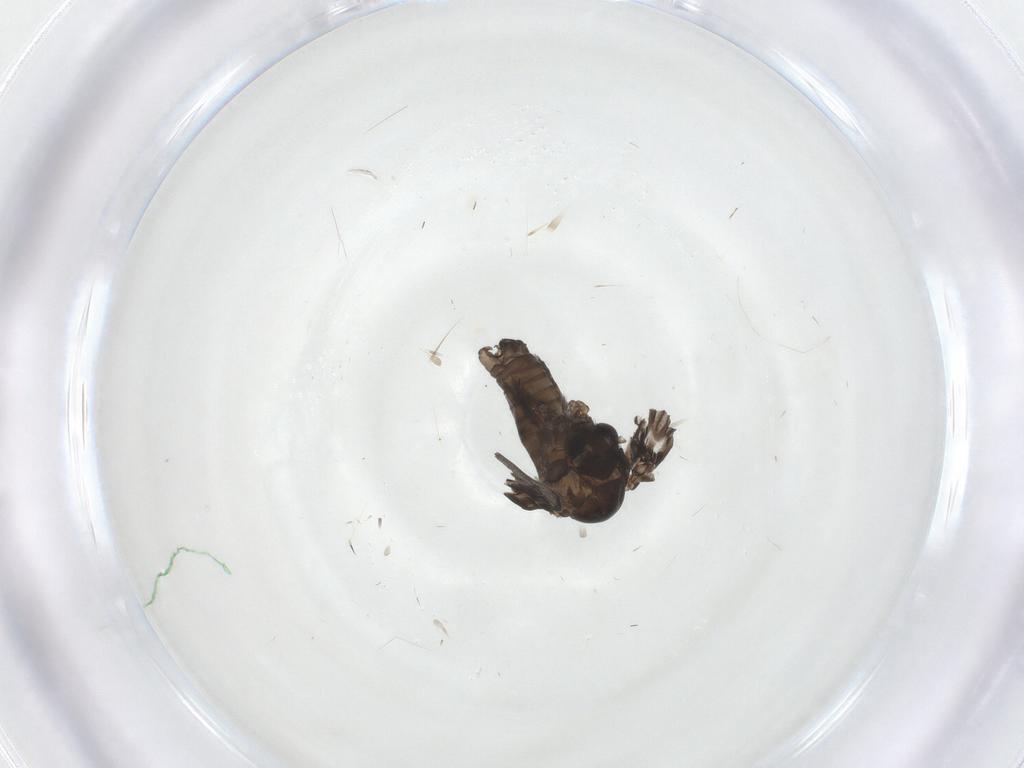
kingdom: Animalia
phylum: Arthropoda
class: Insecta
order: Diptera
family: Psychodidae
